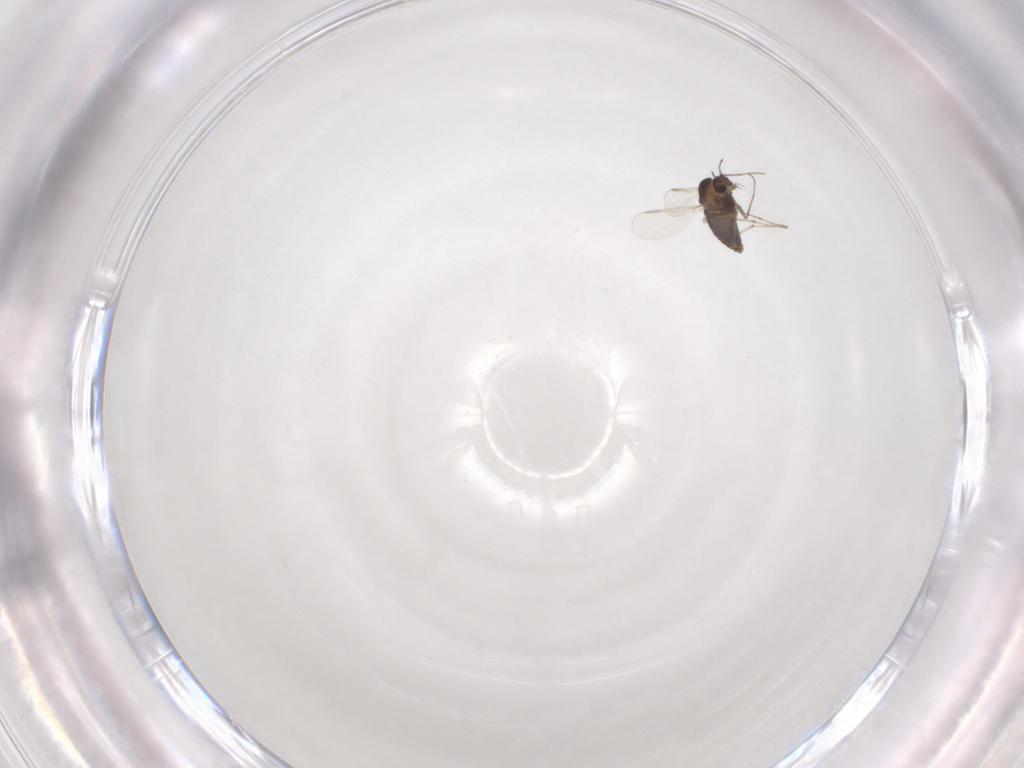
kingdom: Animalia
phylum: Arthropoda
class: Insecta
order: Diptera
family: Chironomidae
